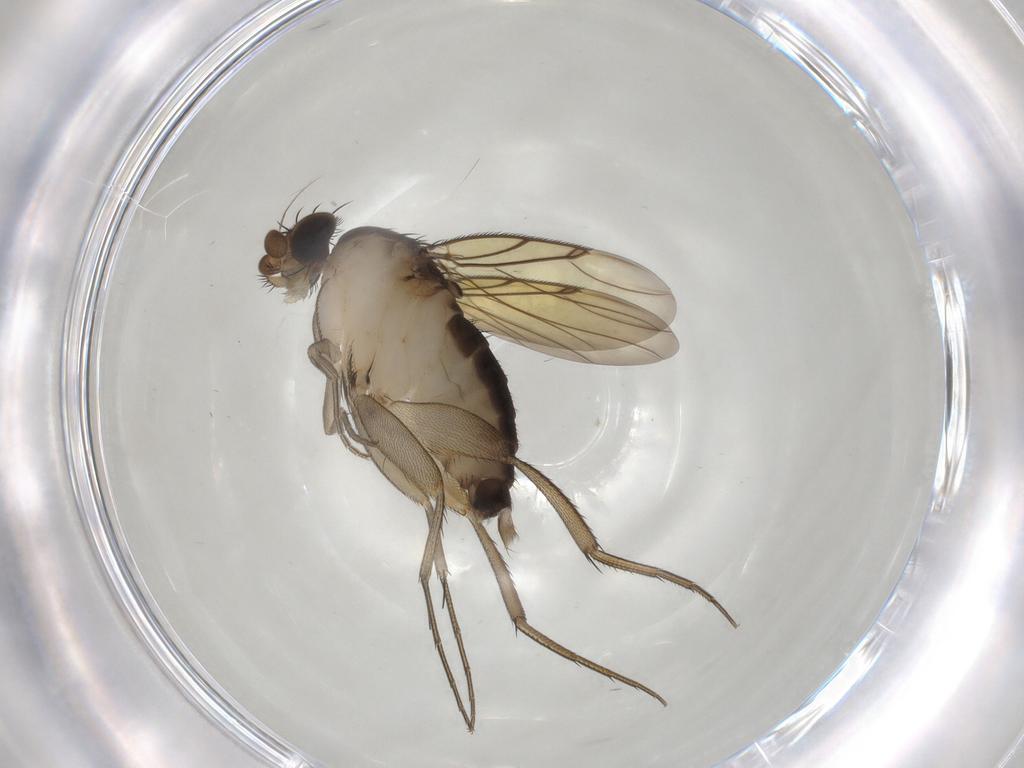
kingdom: Animalia
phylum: Arthropoda
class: Insecta
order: Diptera
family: Cecidomyiidae
